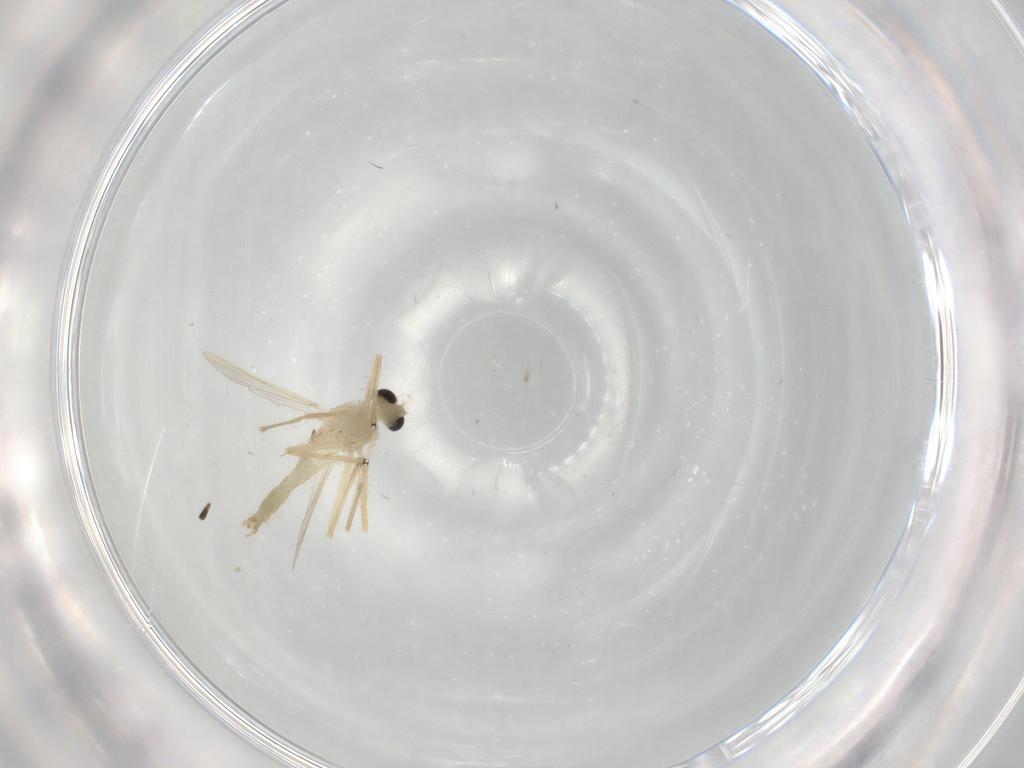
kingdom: Animalia
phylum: Arthropoda
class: Insecta
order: Diptera
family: Chironomidae
